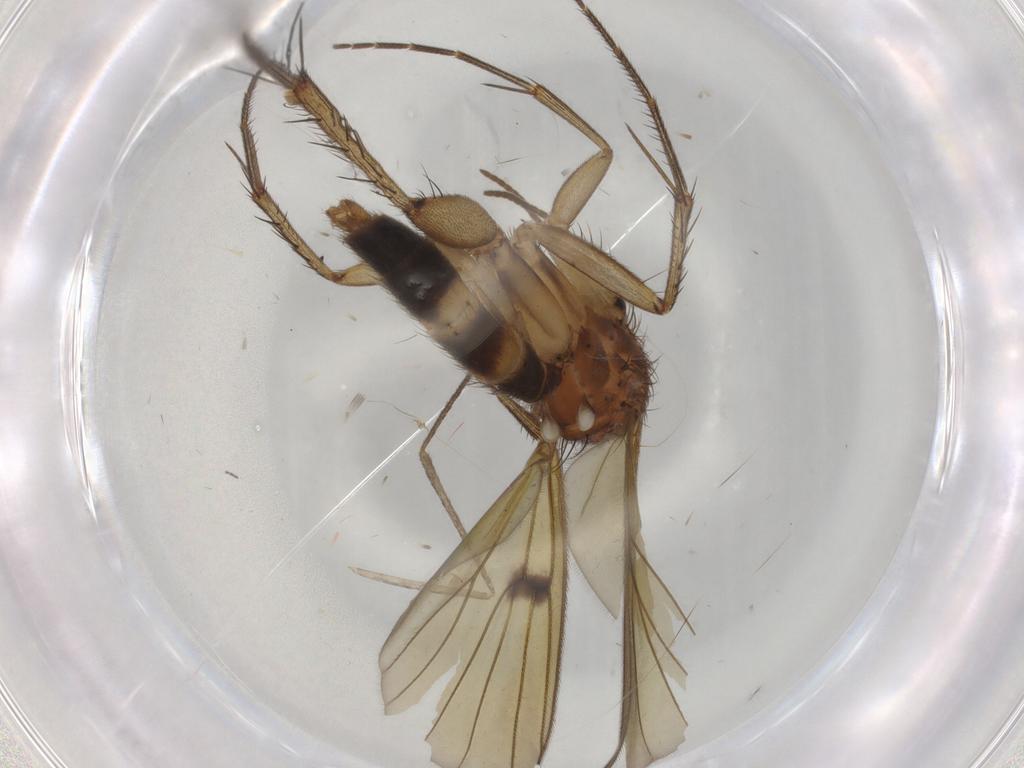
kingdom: Animalia
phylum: Arthropoda
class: Insecta
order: Diptera
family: Cecidomyiidae
